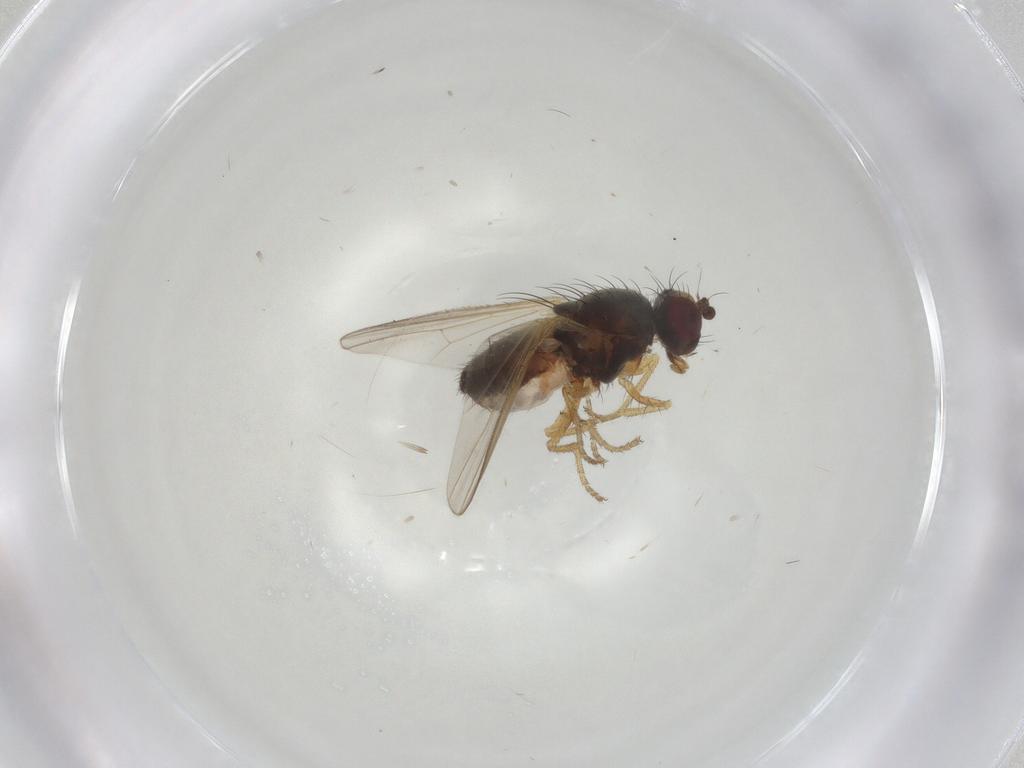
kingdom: Animalia
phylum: Arthropoda
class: Insecta
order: Diptera
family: Heleomyzidae
